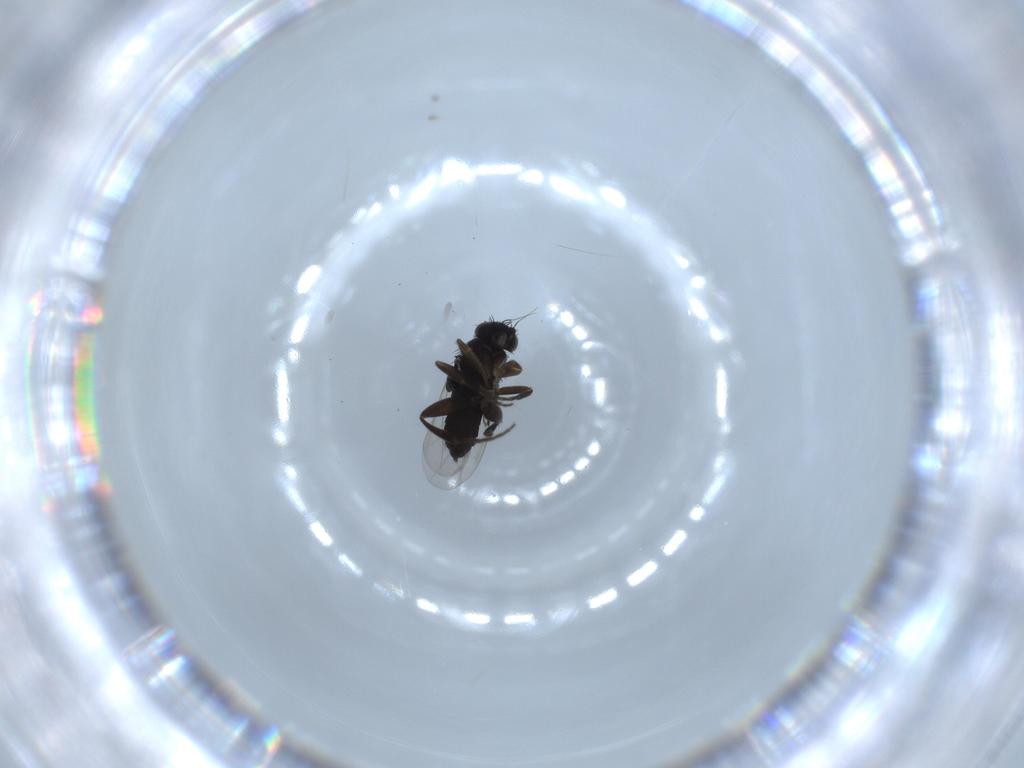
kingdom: Animalia
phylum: Arthropoda
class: Insecta
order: Diptera
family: Phoridae
